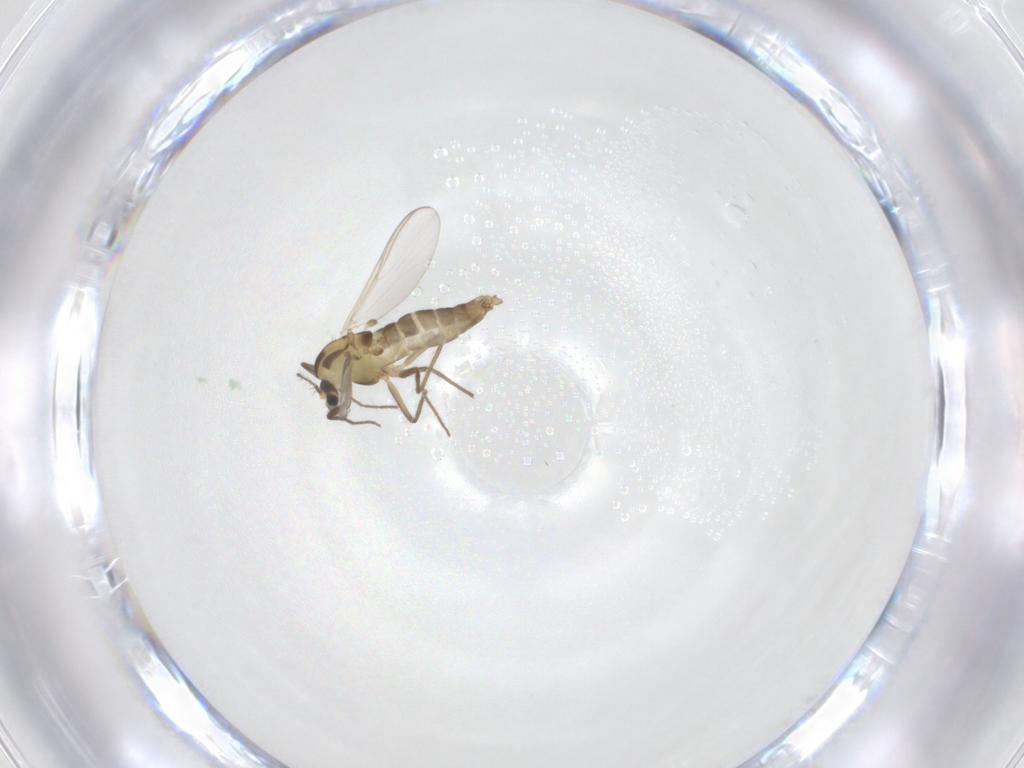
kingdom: Animalia
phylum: Arthropoda
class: Insecta
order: Diptera
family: Chironomidae
